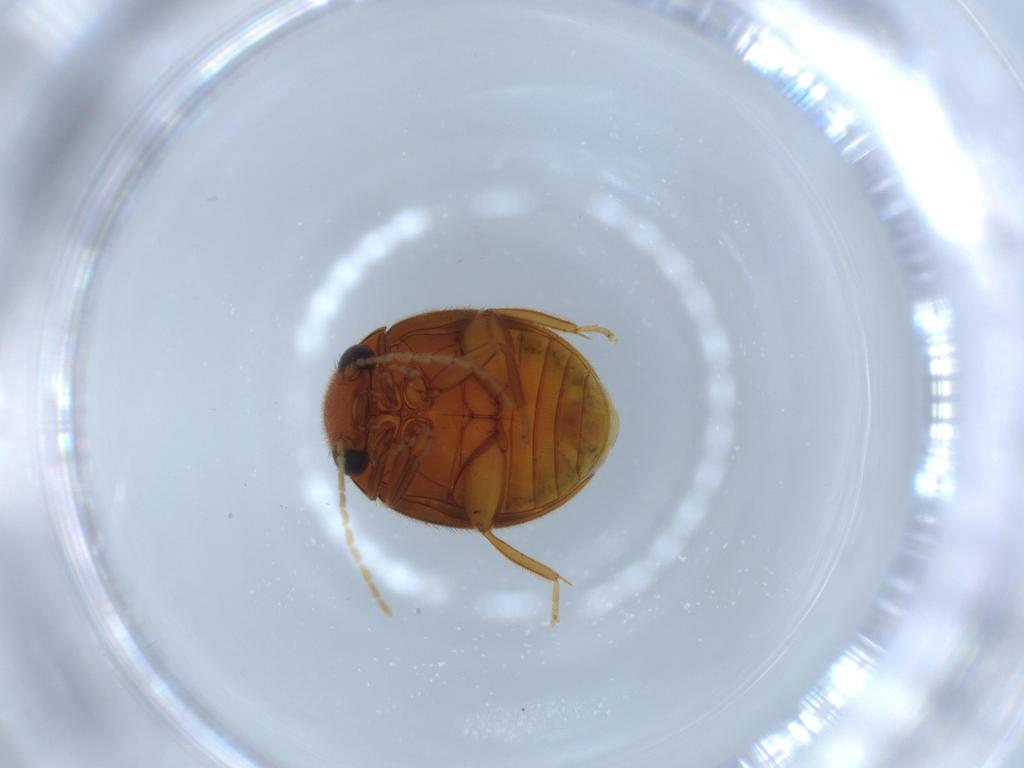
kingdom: Animalia
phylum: Arthropoda
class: Insecta
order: Coleoptera
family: Scirtidae
